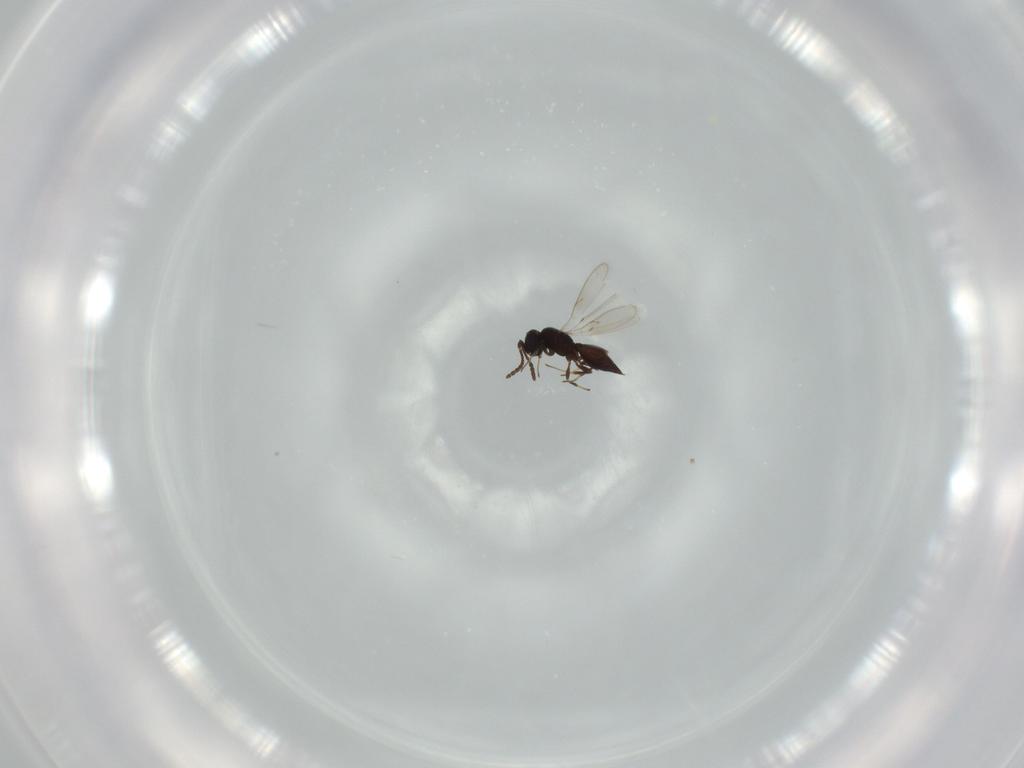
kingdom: Animalia
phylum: Arthropoda
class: Insecta
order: Hymenoptera
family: Scelionidae
